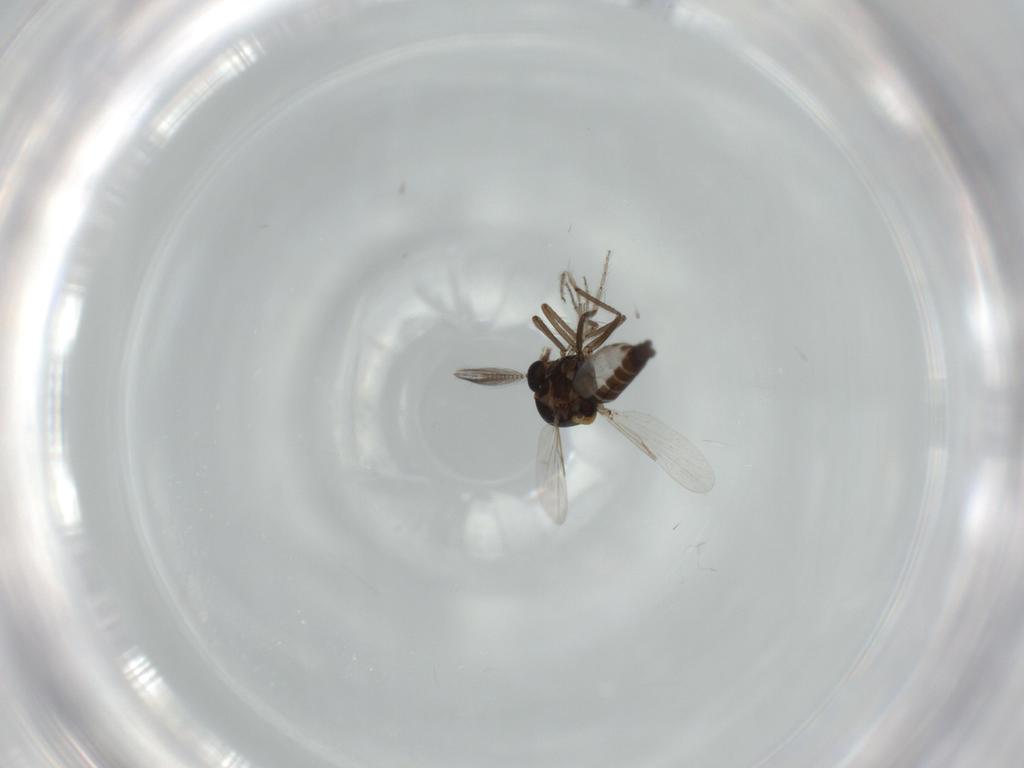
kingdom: Animalia
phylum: Arthropoda
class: Insecta
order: Diptera
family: Ceratopogonidae
